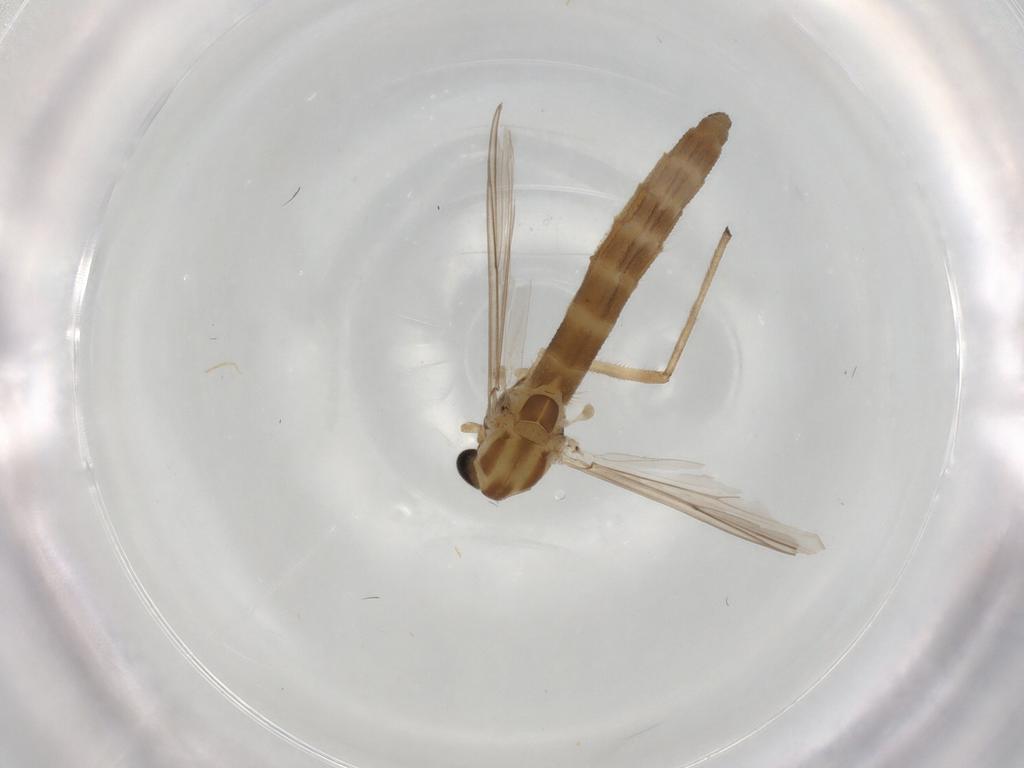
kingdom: Animalia
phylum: Arthropoda
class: Insecta
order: Diptera
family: Chironomidae
